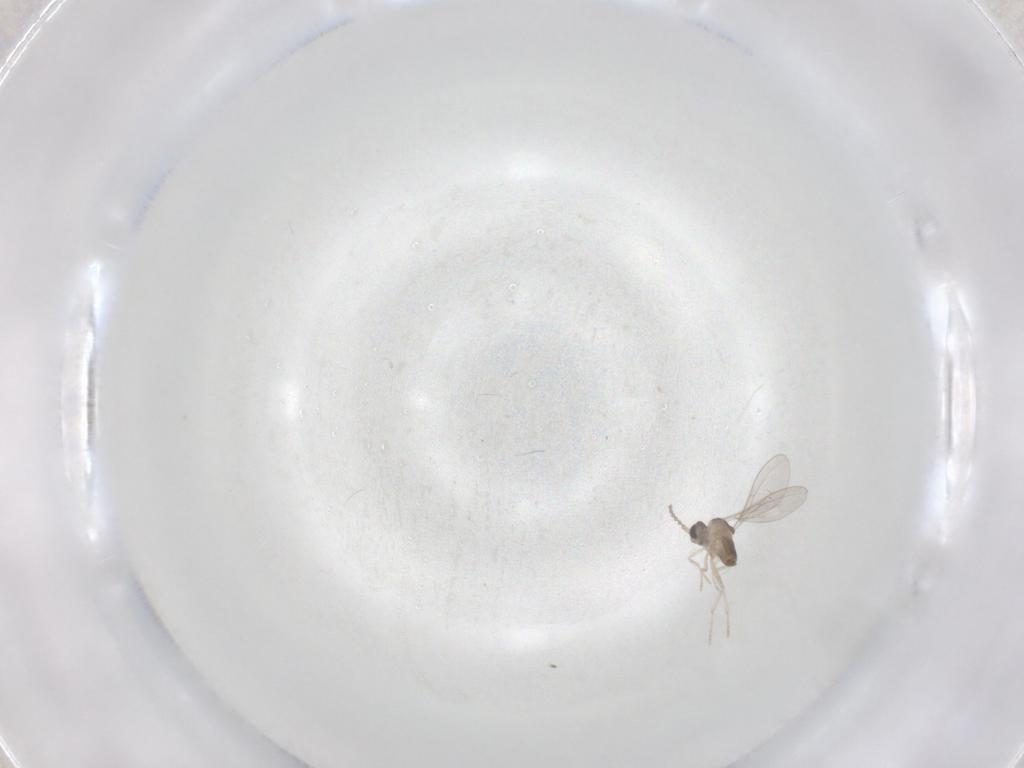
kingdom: Animalia
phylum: Arthropoda
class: Insecta
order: Diptera
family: Cecidomyiidae
